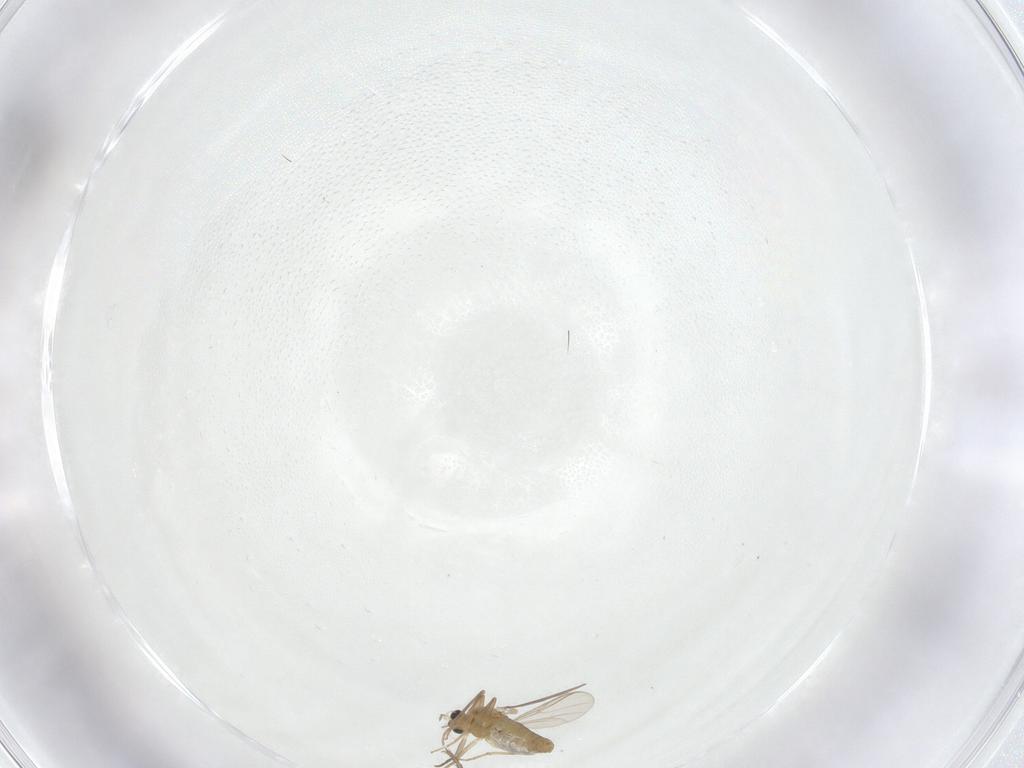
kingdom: Animalia
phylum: Arthropoda
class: Insecta
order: Diptera
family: Chironomidae
